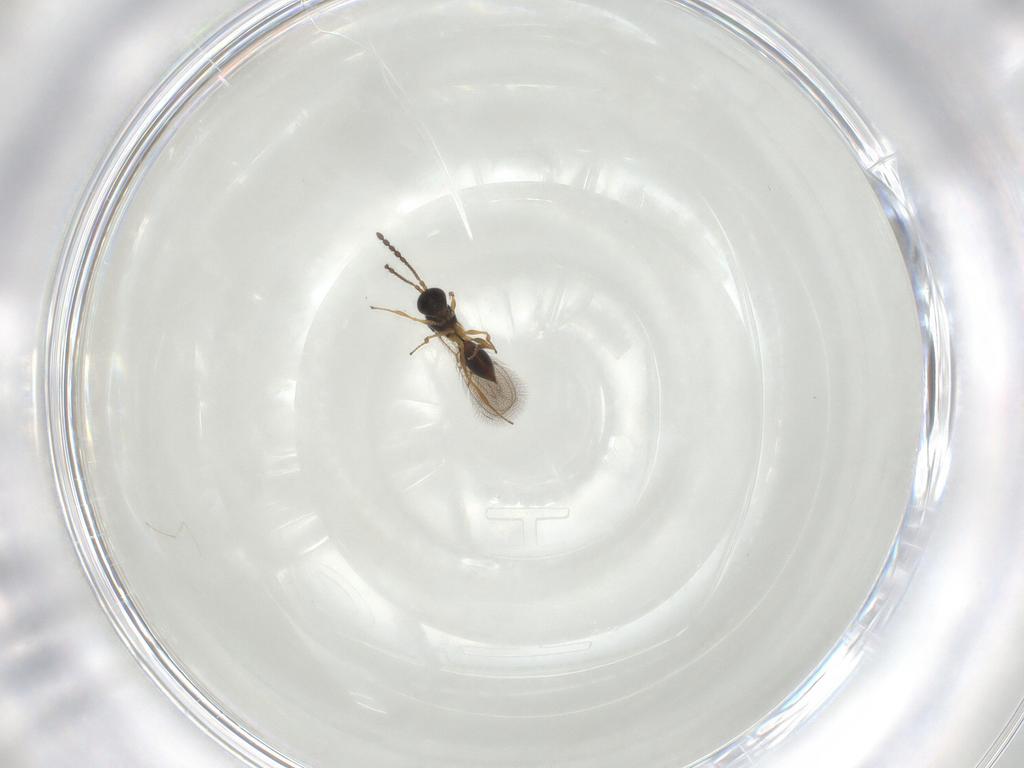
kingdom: Animalia
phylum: Arthropoda
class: Insecta
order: Hymenoptera
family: Figitidae
